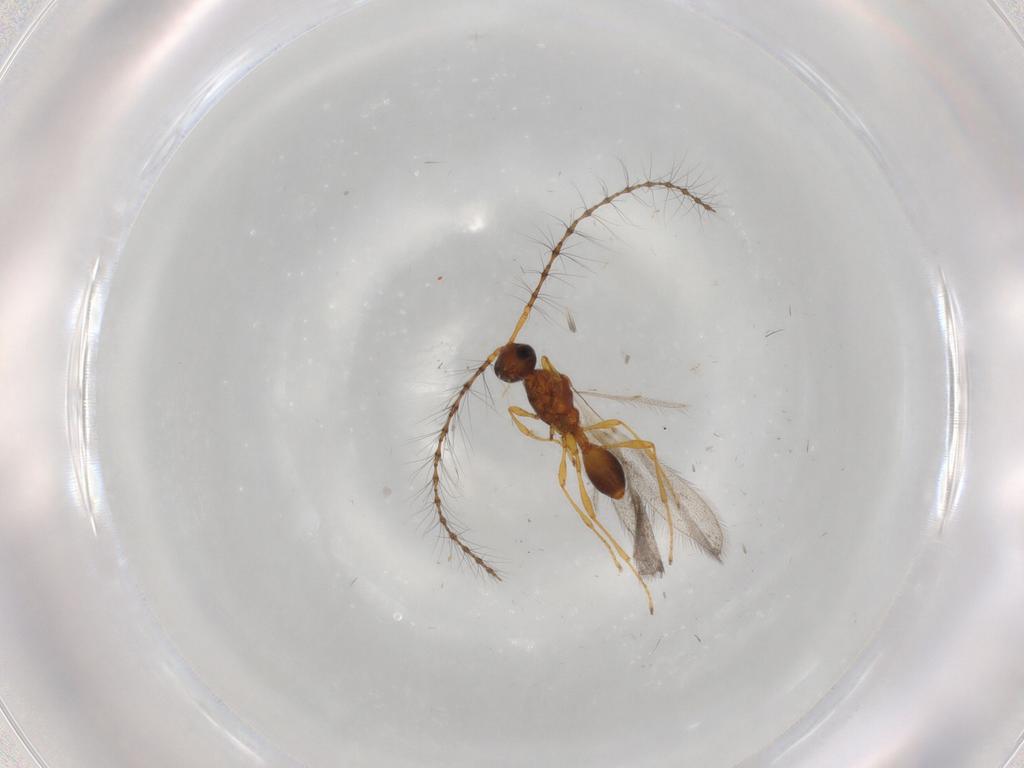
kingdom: Animalia
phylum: Arthropoda
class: Insecta
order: Hymenoptera
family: Diapriidae
